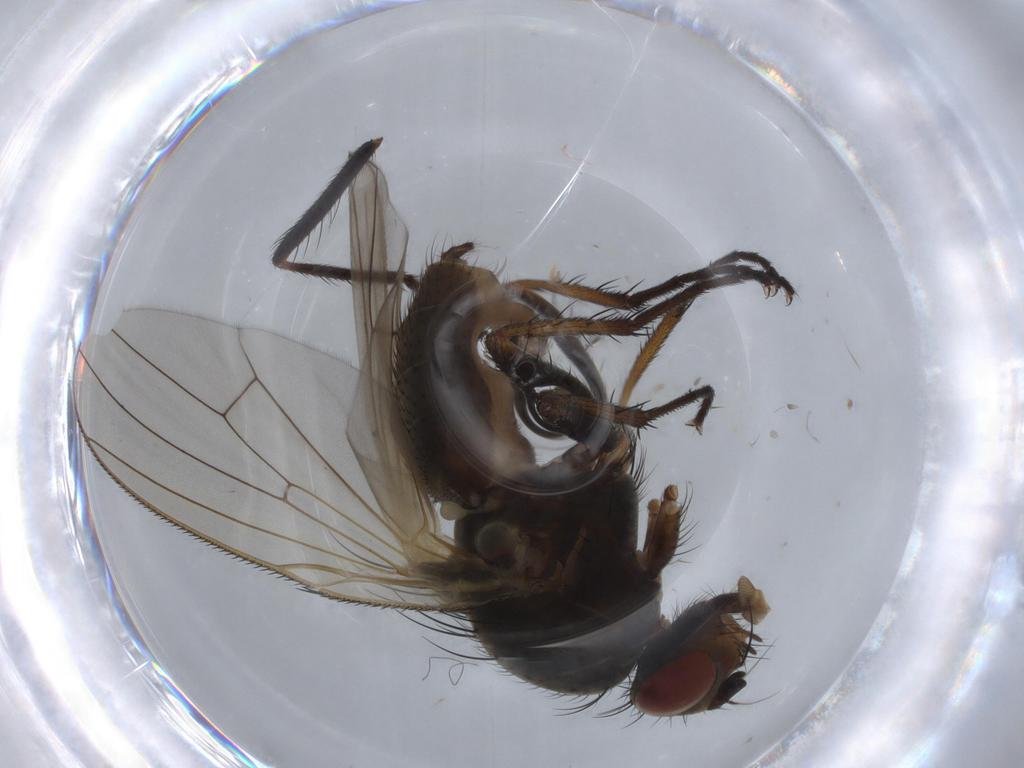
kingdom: Animalia
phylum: Arthropoda
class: Insecta
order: Diptera
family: Anthomyiidae
